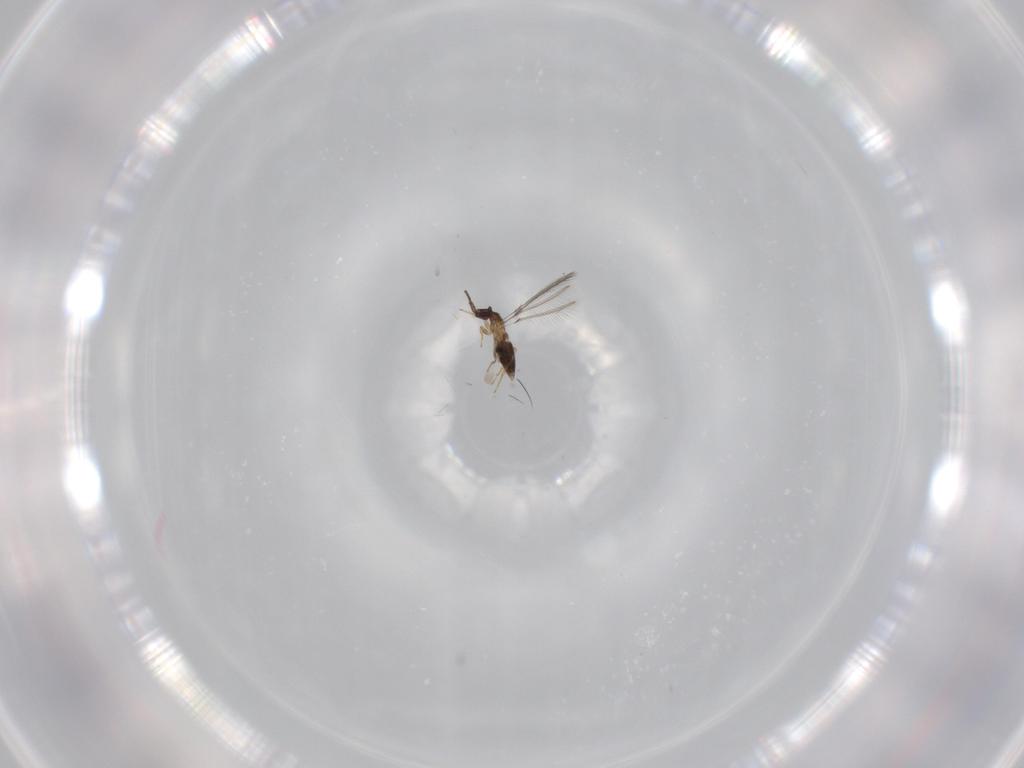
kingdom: Animalia
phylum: Arthropoda
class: Insecta
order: Hymenoptera
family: Mymaridae
